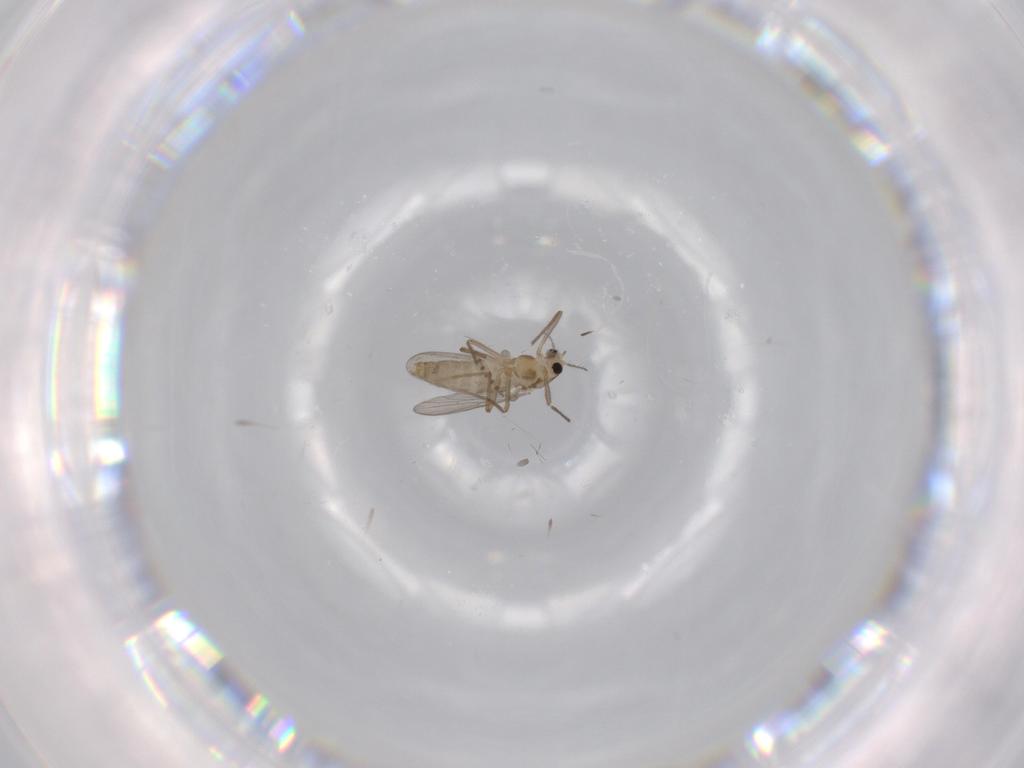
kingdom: Animalia
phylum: Arthropoda
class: Insecta
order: Diptera
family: Chironomidae
